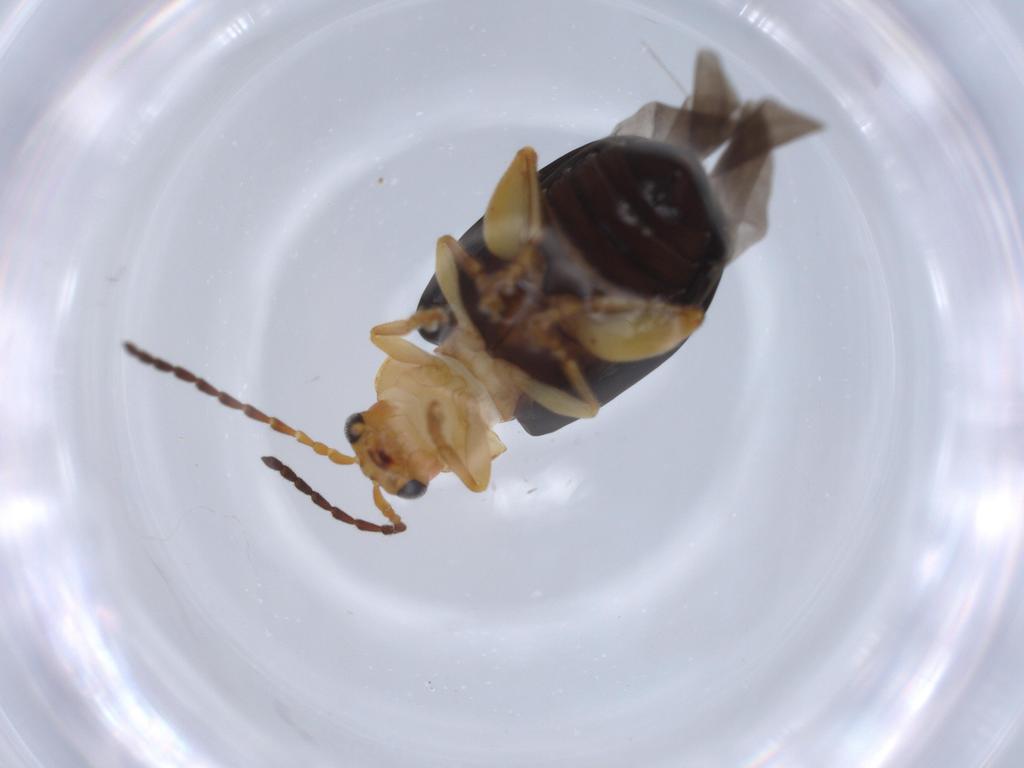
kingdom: Animalia
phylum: Arthropoda
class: Insecta
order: Coleoptera
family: Chrysomelidae
